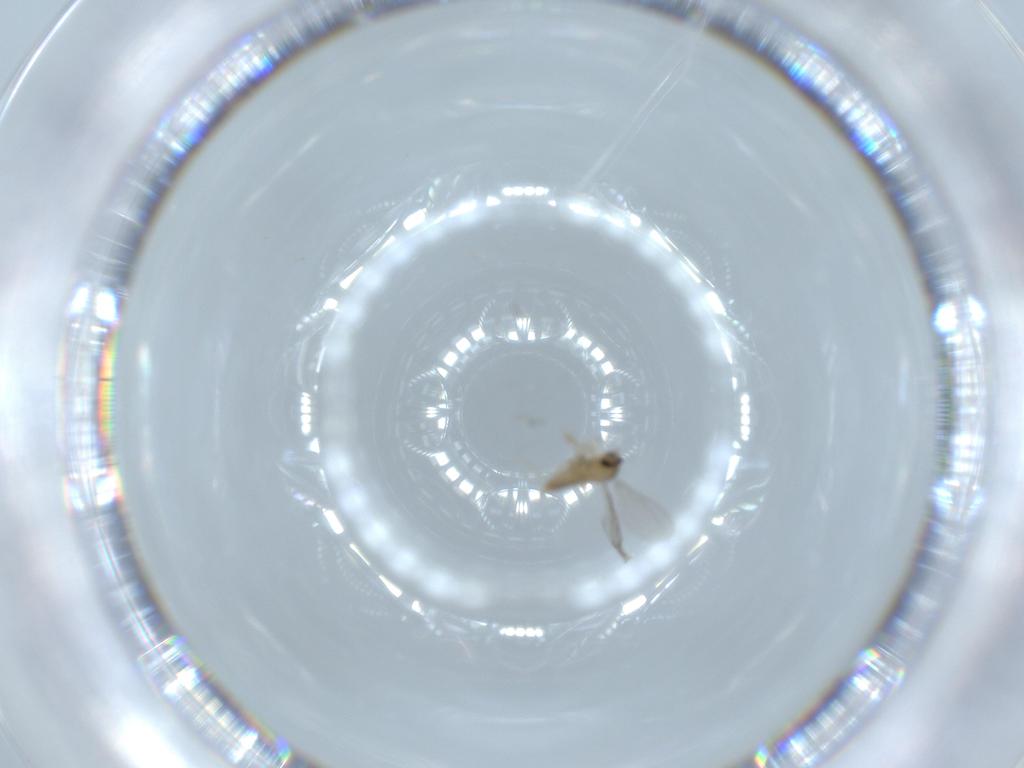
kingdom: Animalia
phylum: Arthropoda
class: Insecta
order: Diptera
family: Chironomidae
